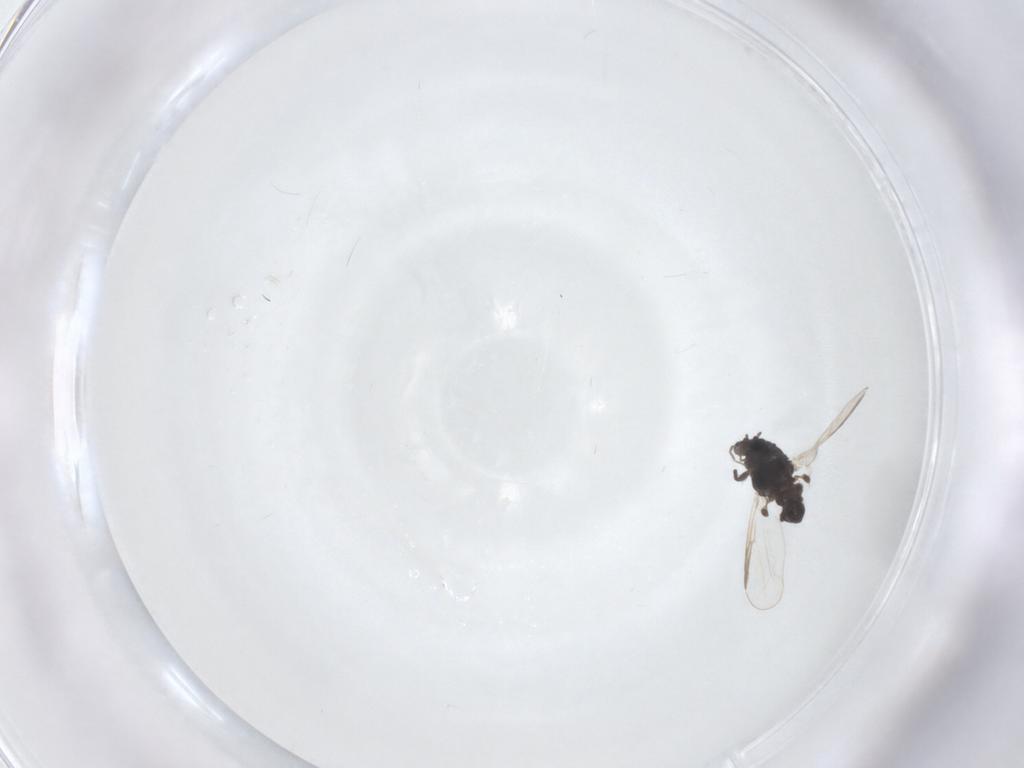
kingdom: Animalia
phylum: Arthropoda
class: Insecta
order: Diptera
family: Chironomidae
